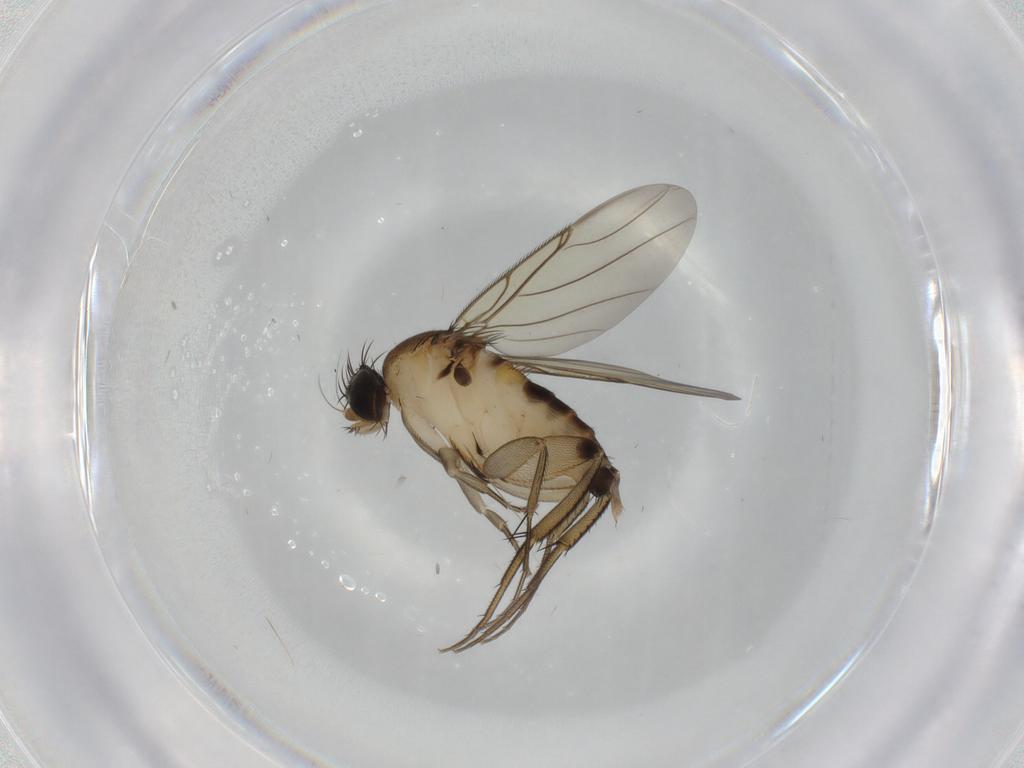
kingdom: Animalia
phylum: Arthropoda
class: Insecta
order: Diptera
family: Phoridae
